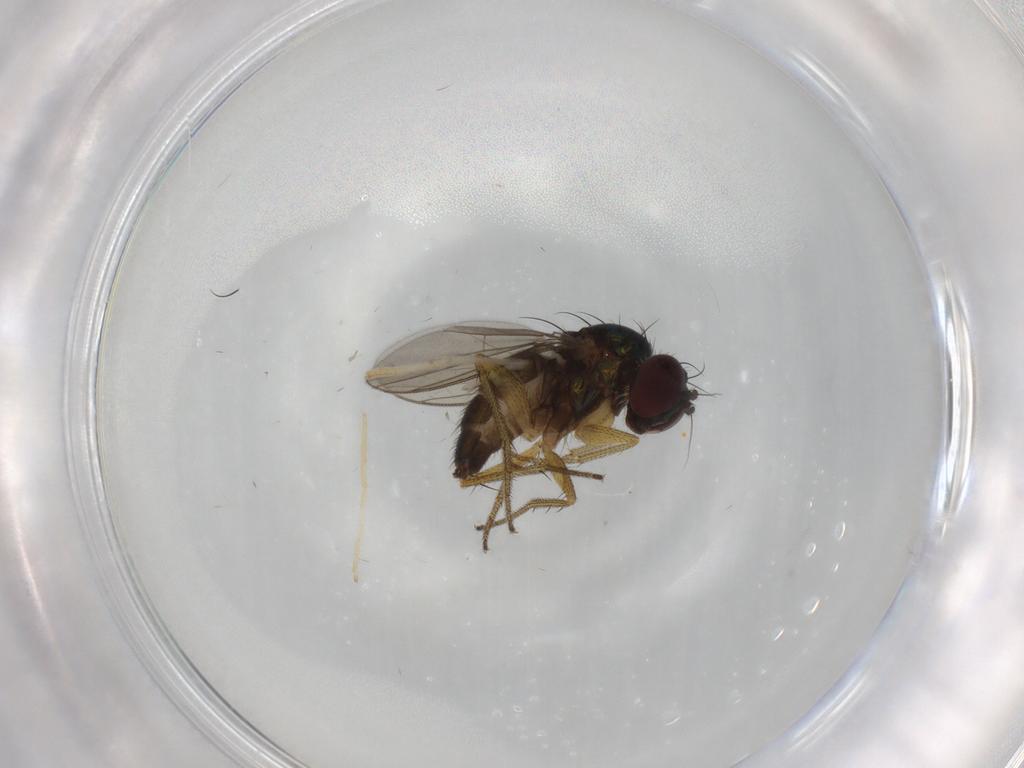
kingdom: Animalia
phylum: Arthropoda
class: Insecta
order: Diptera
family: Psychodidae
